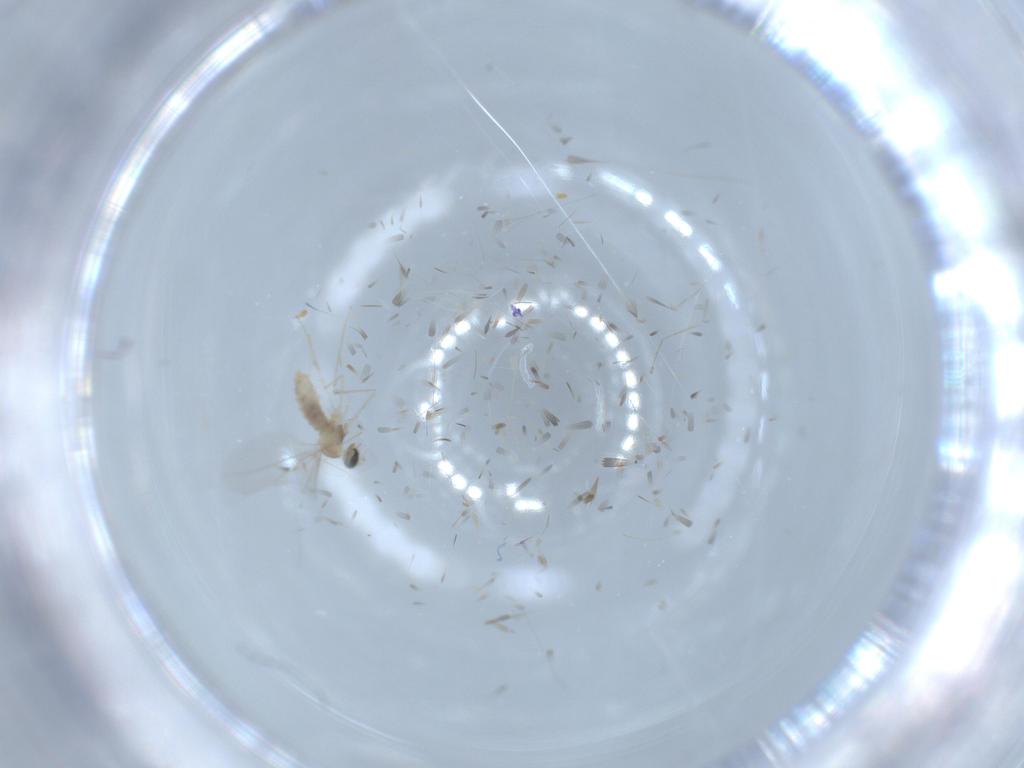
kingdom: Animalia
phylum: Arthropoda
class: Insecta
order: Diptera
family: Cecidomyiidae
